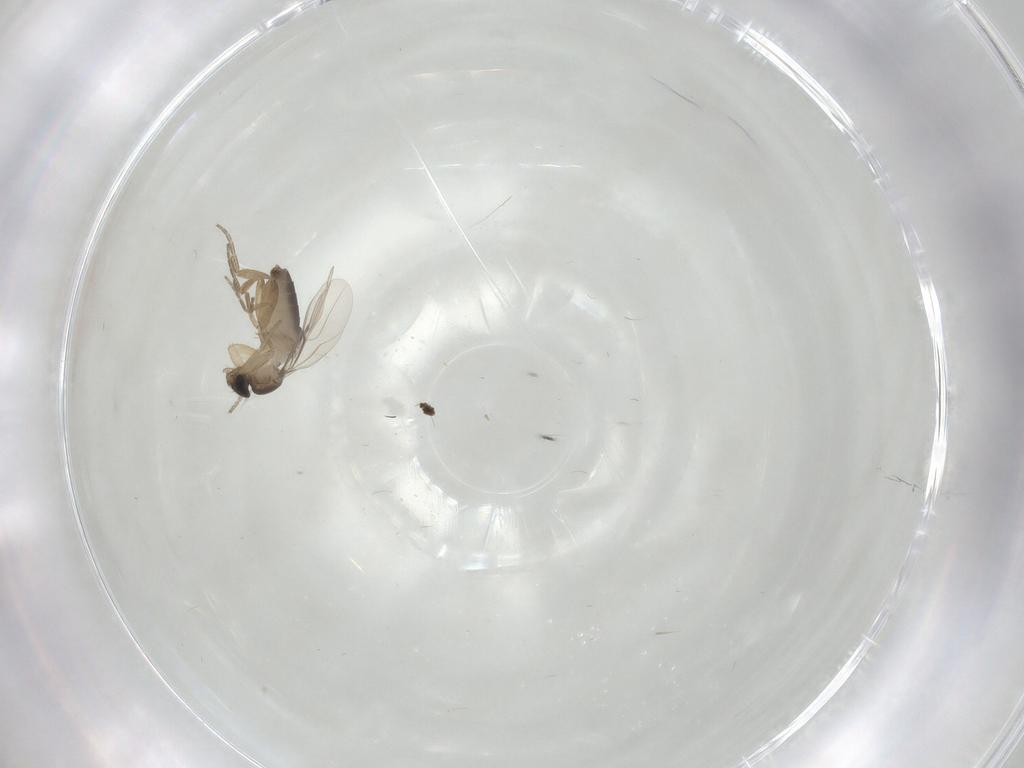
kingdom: Animalia
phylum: Arthropoda
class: Insecta
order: Diptera
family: Phoridae
